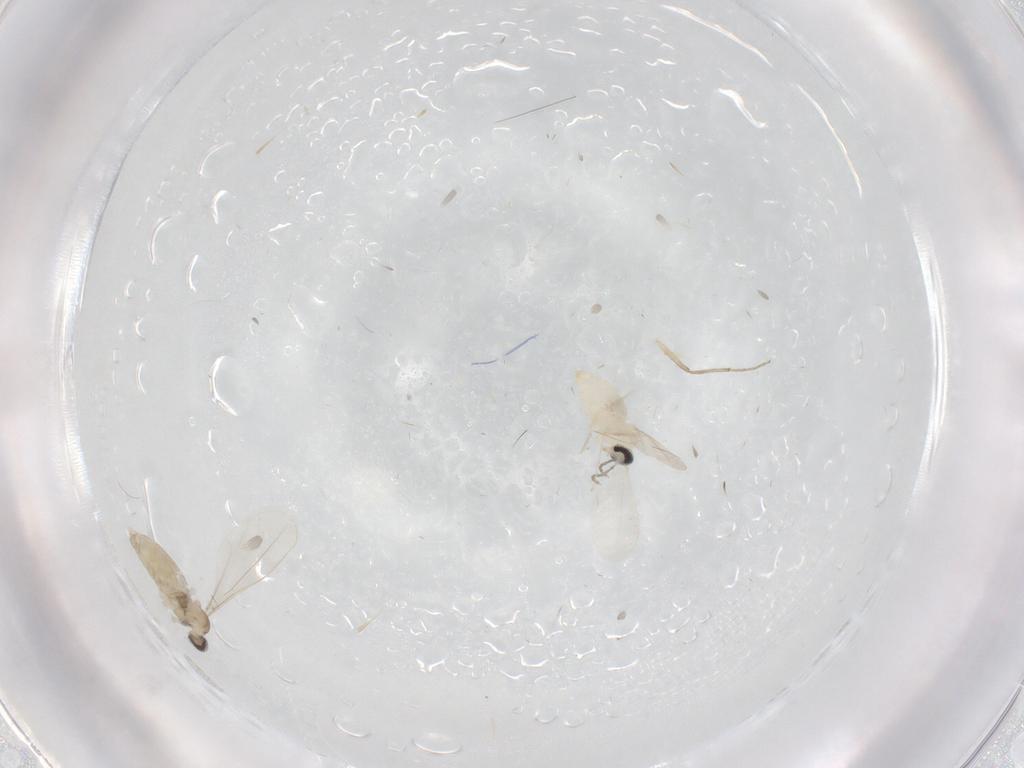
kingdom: Animalia
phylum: Arthropoda
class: Insecta
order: Diptera
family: Cecidomyiidae
